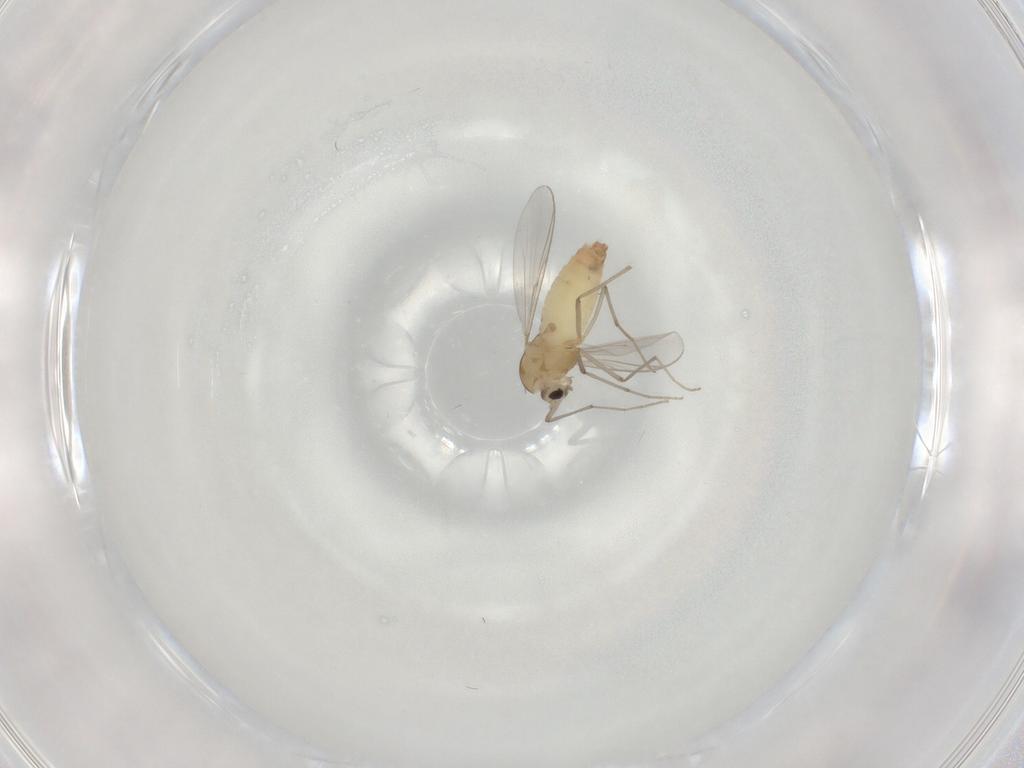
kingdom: Animalia
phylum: Arthropoda
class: Insecta
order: Diptera
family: Chironomidae
